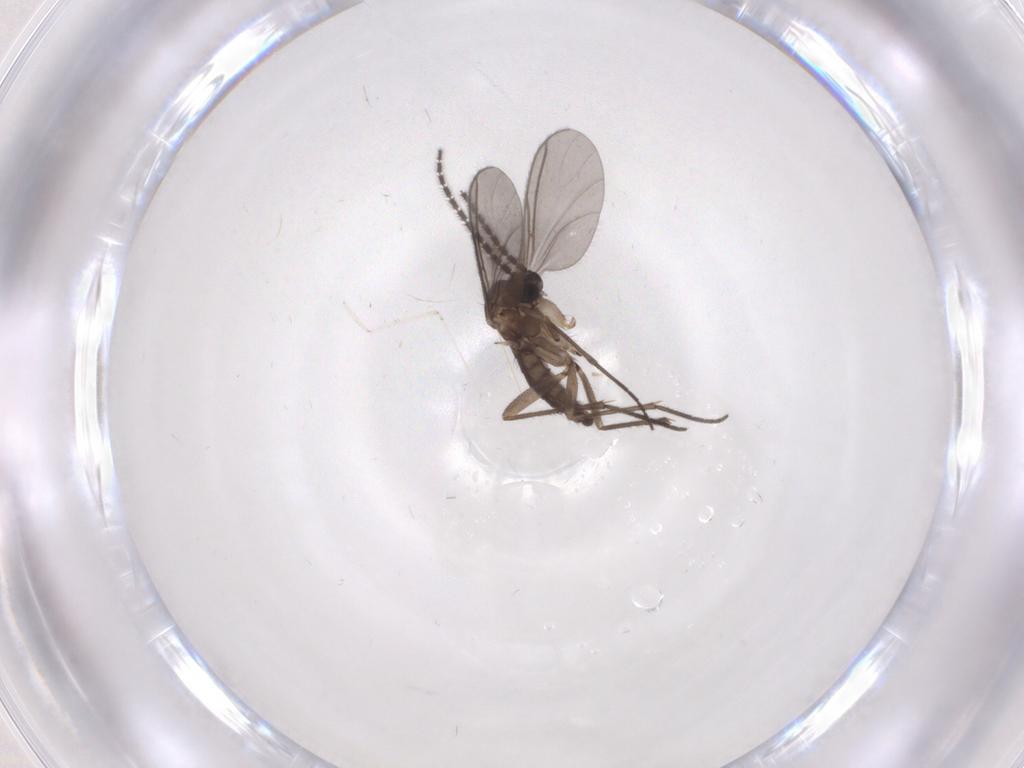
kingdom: Animalia
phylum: Arthropoda
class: Insecta
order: Diptera
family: Sciaridae
